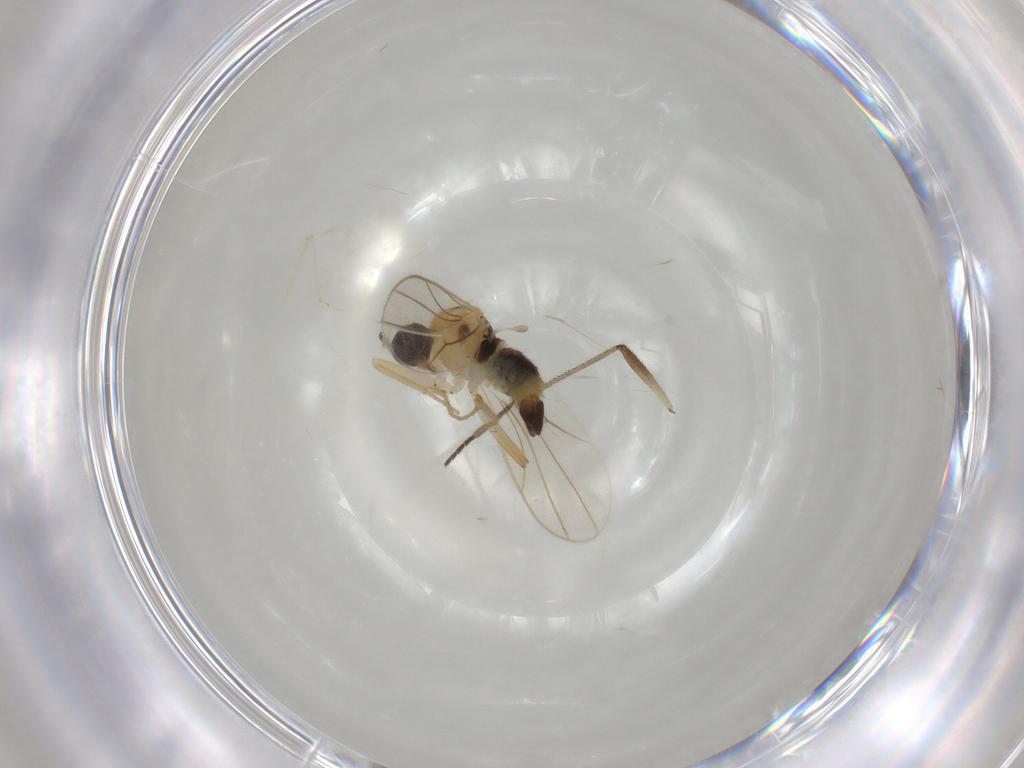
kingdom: Animalia
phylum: Arthropoda
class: Insecta
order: Diptera
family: Hybotidae
